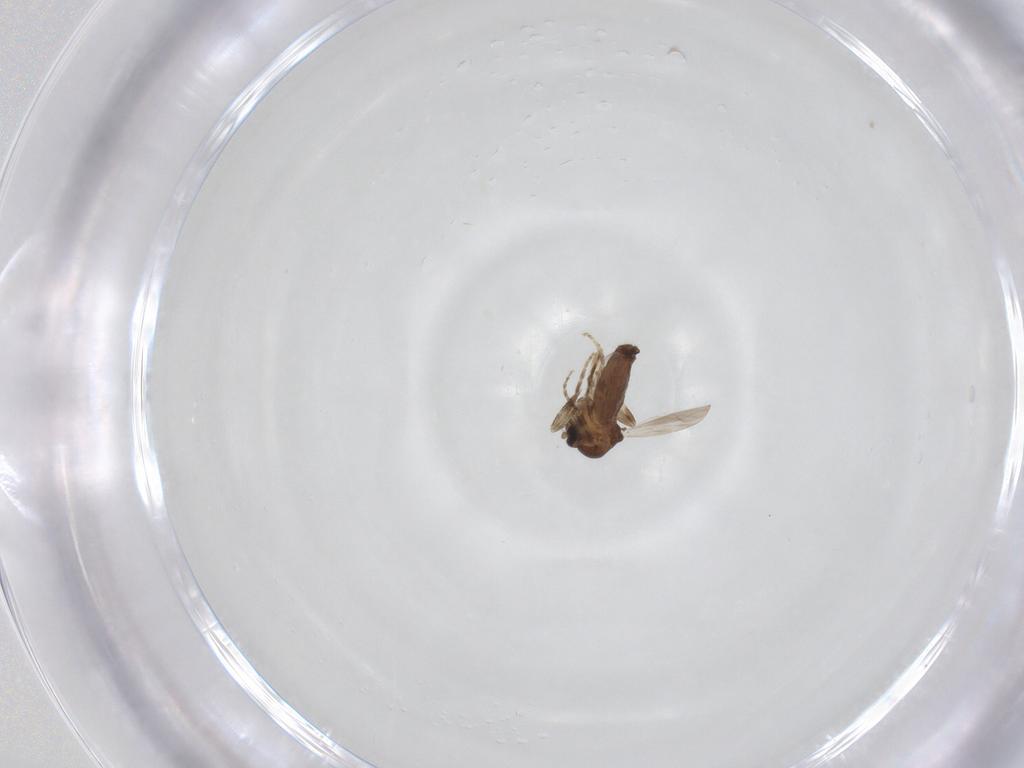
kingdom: Animalia
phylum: Arthropoda
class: Insecta
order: Diptera
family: Ceratopogonidae
